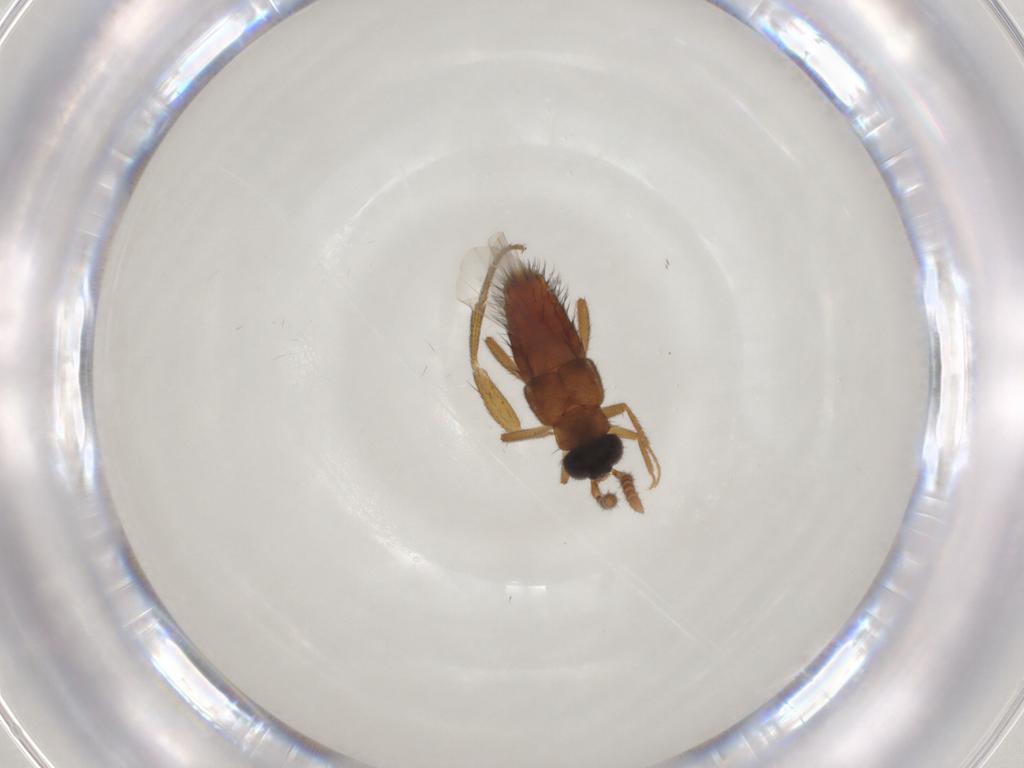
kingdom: Animalia
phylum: Arthropoda
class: Insecta
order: Coleoptera
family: Staphylinidae
